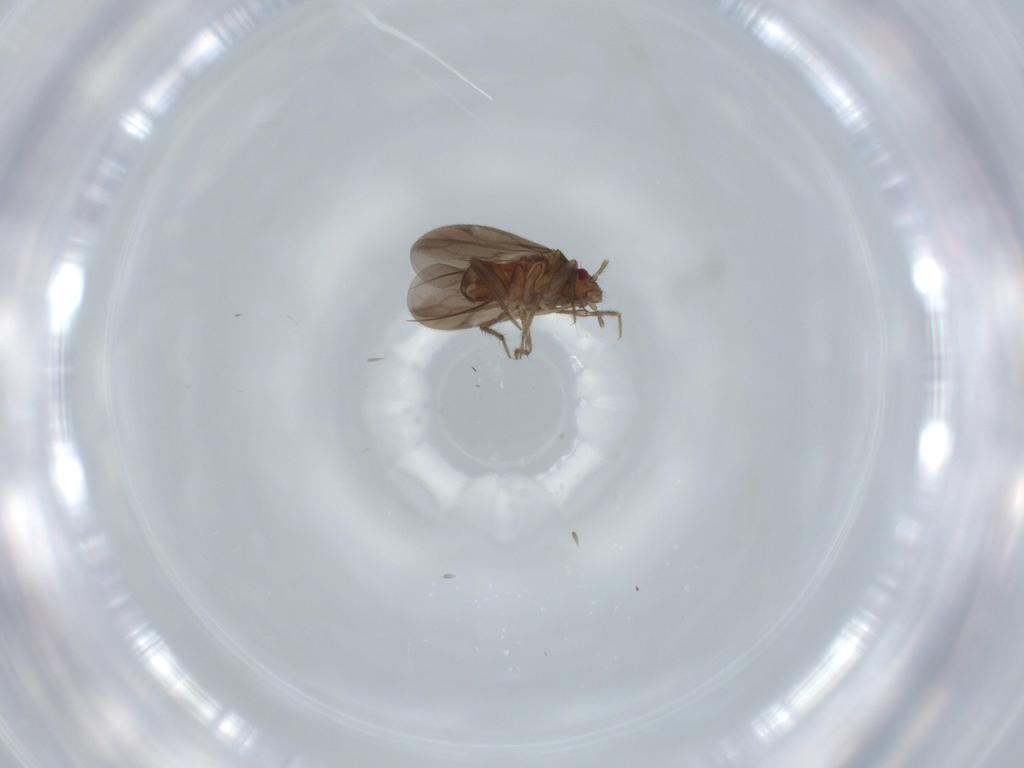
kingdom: Animalia
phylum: Arthropoda
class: Insecta
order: Hemiptera
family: Ceratocombidae
